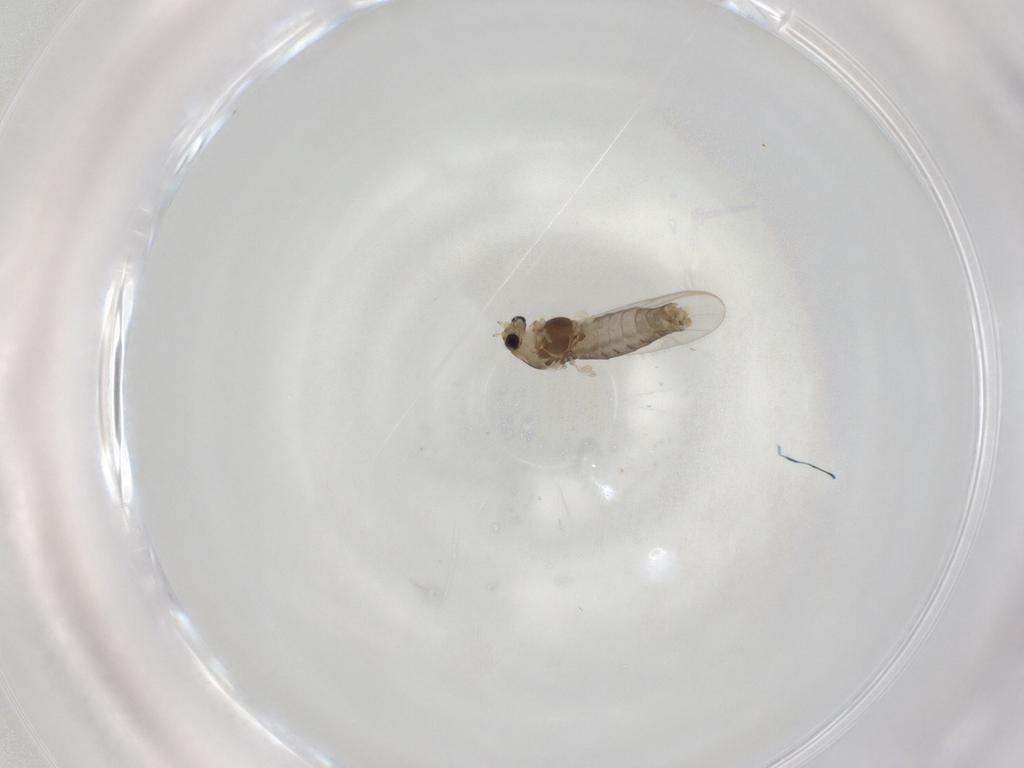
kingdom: Animalia
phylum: Arthropoda
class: Insecta
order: Diptera
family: Chironomidae
